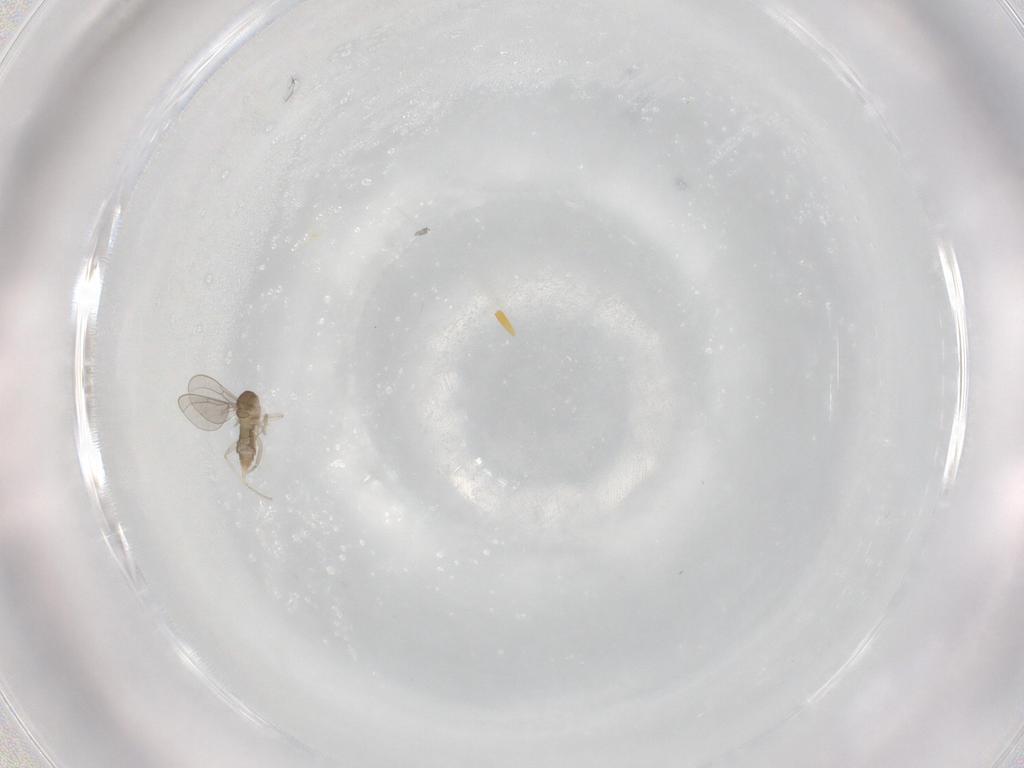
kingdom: Animalia
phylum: Arthropoda
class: Insecta
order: Diptera
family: Cecidomyiidae
